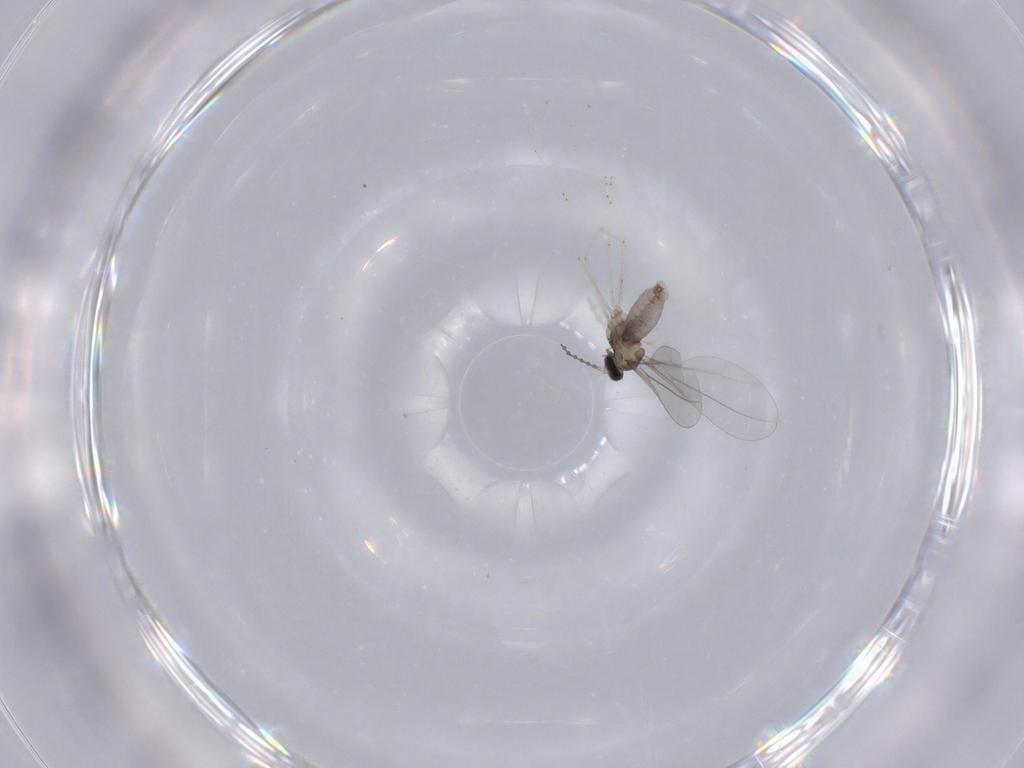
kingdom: Animalia
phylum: Arthropoda
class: Insecta
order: Diptera
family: Cecidomyiidae
